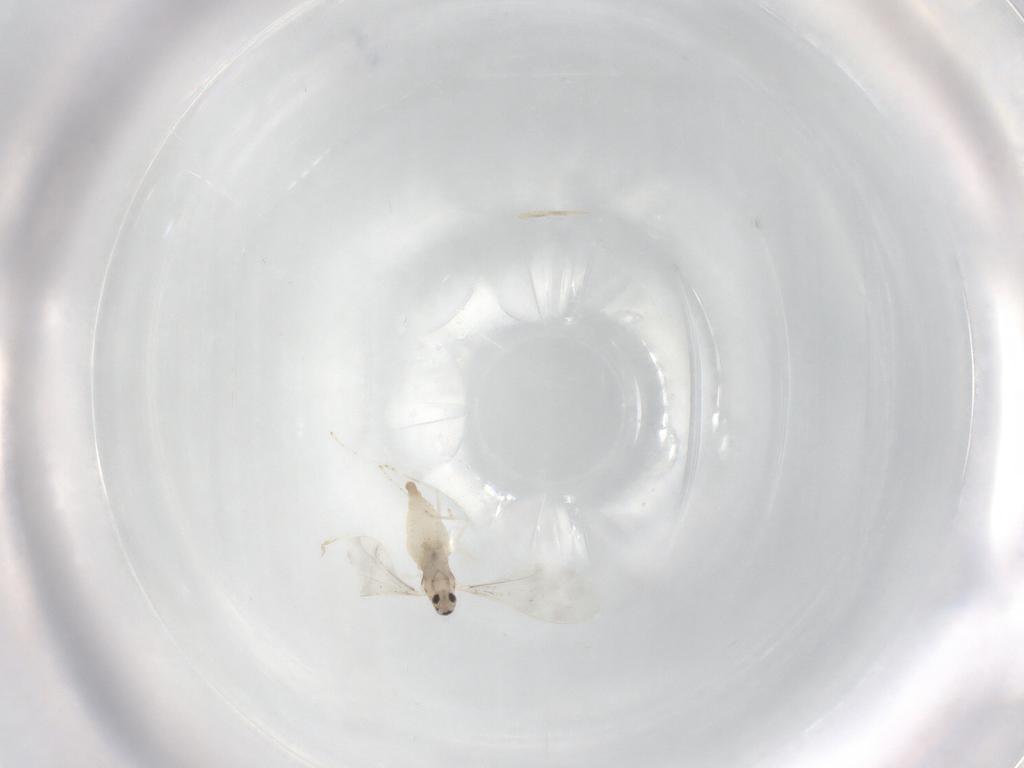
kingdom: Animalia
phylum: Arthropoda
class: Insecta
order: Diptera
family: Cecidomyiidae
